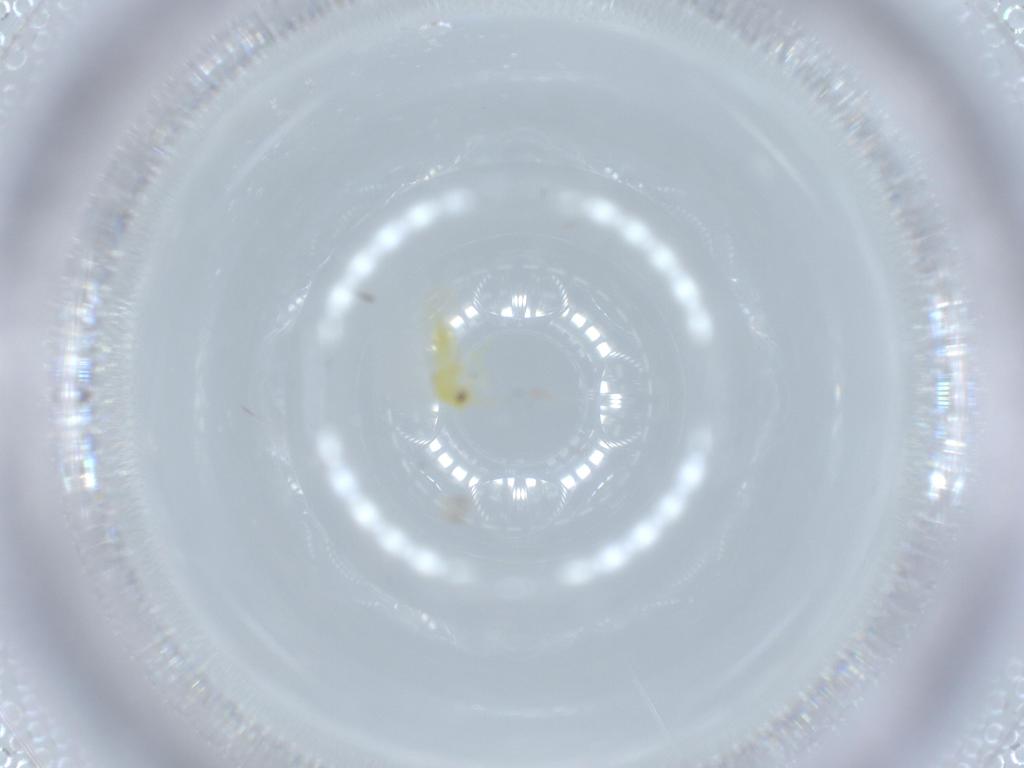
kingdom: Animalia
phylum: Arthropoda
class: Insecta
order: Hemiptera
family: Aleyrodidae
